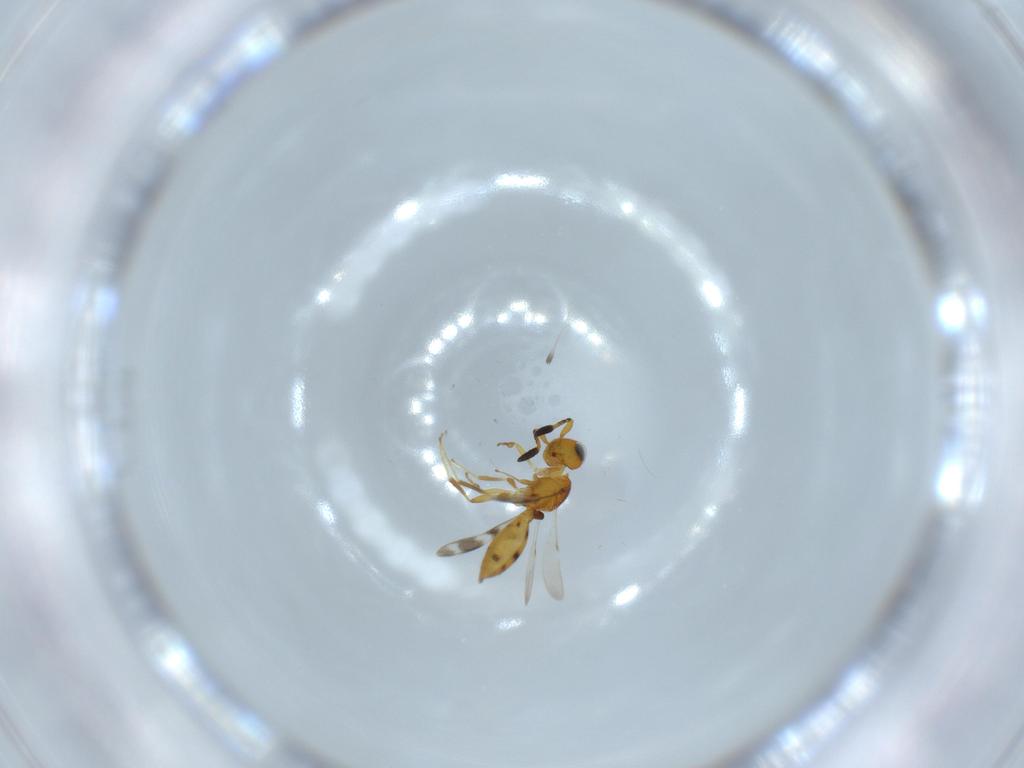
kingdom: Animalia
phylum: Arthropoda
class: Insecta
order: Hymenoptera
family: Scelionidae
